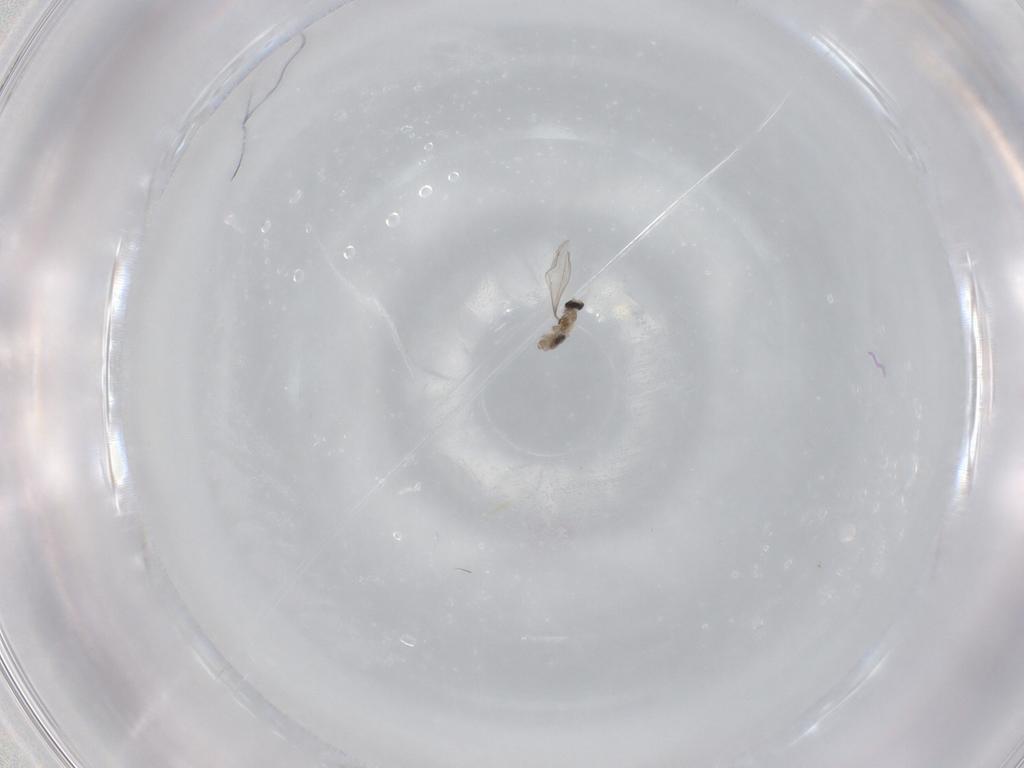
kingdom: Animalia
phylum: Arthropoda
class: Insecta
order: Diptera
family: Cecidomyiidae
